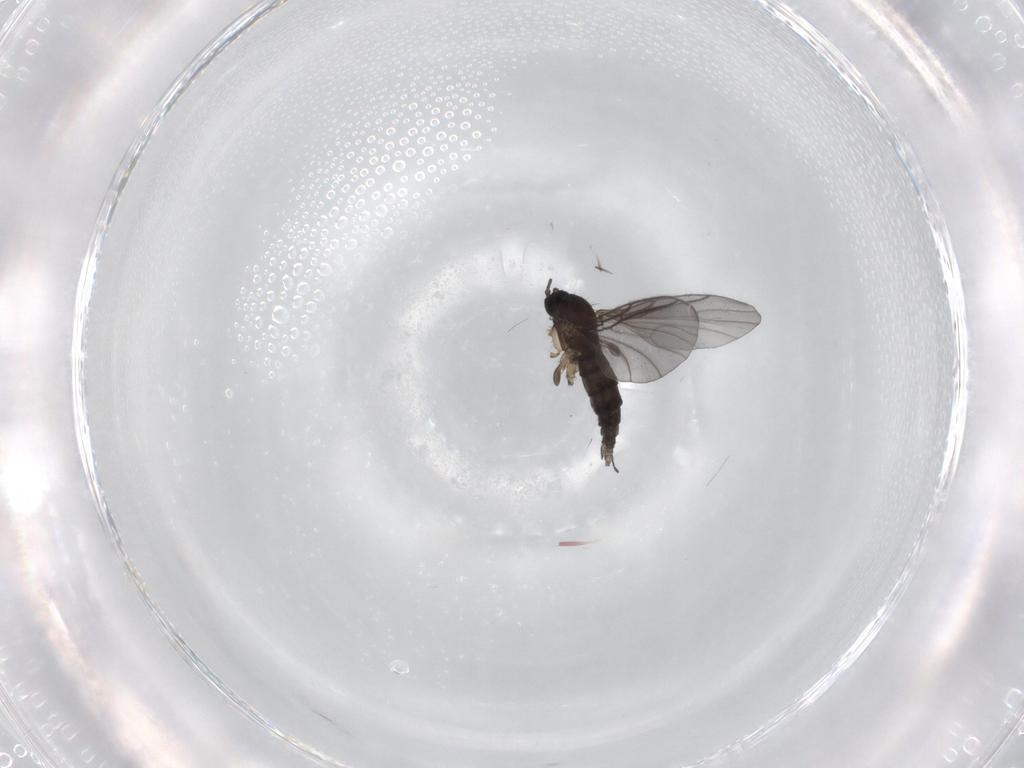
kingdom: Animalia
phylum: Arthropoda
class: Insecta
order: Diptera
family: Sciaridae
